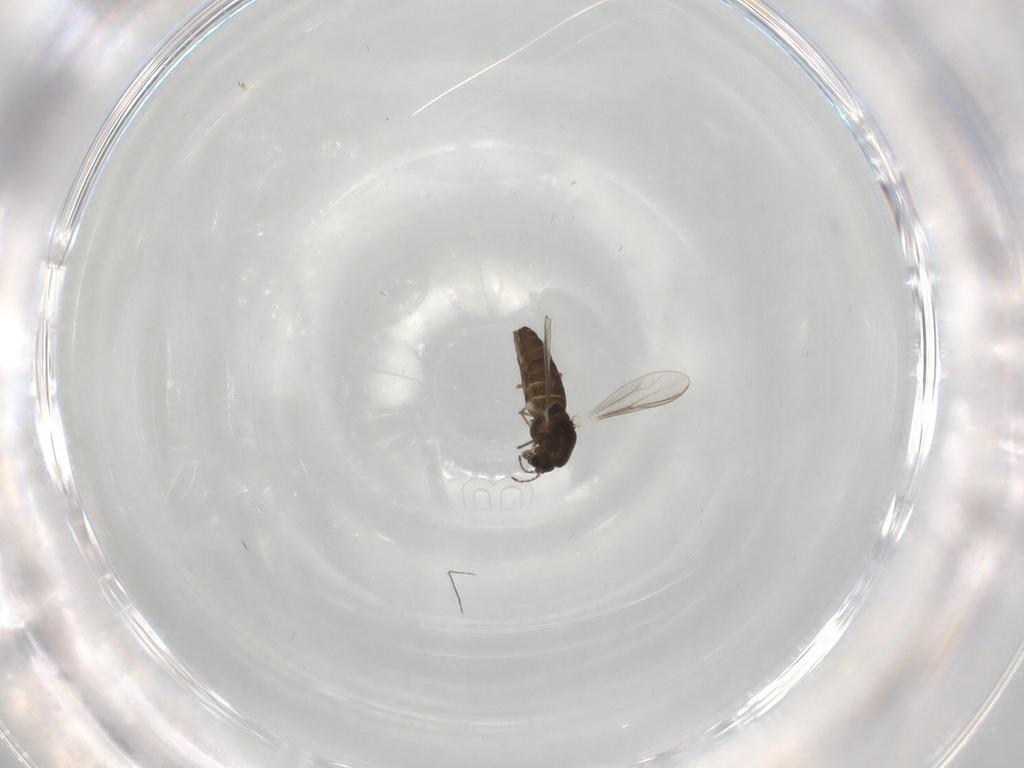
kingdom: Animalia
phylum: Arthropoda
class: Insecta
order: Diptera
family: Chironomidae
